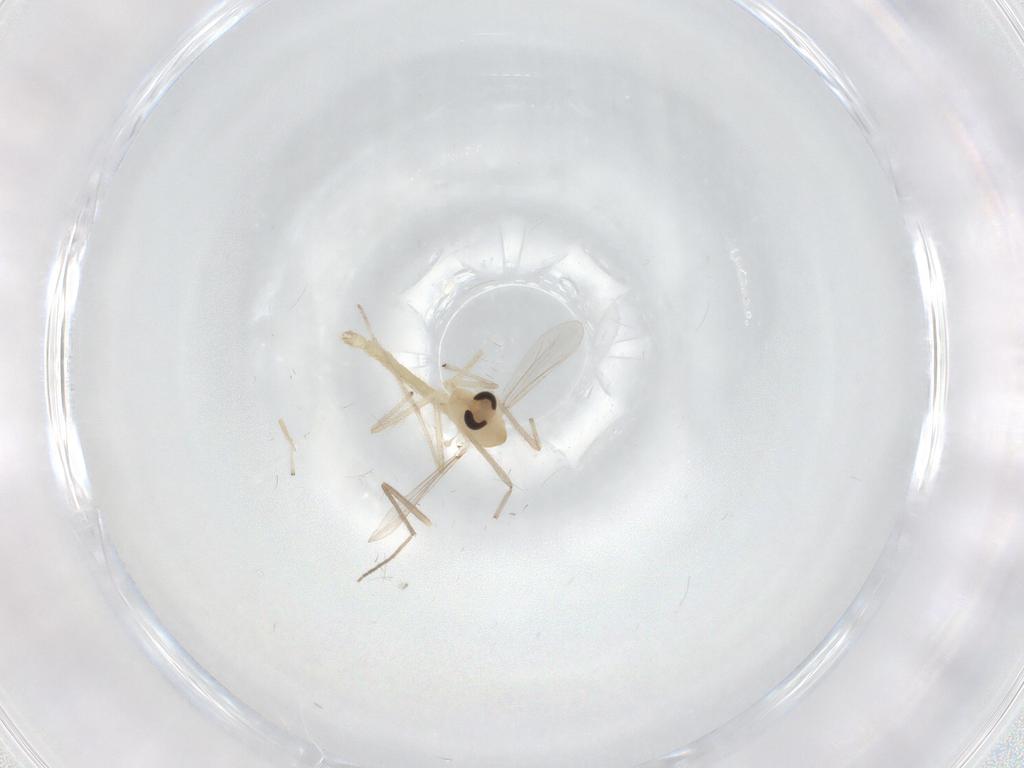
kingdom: Animalia
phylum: Arthropoda
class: Insecta
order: Diptera
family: Chironomidae
